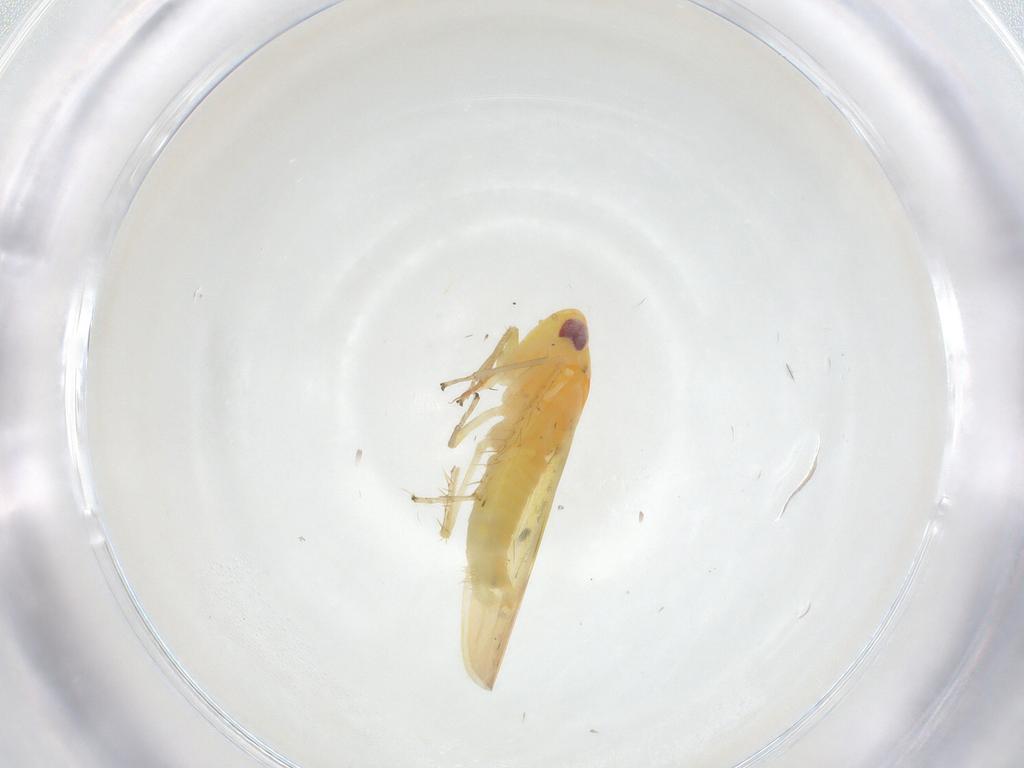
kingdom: Animalia
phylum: Arthropoda
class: Insecta
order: Hemiptera
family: Cicadellidae
